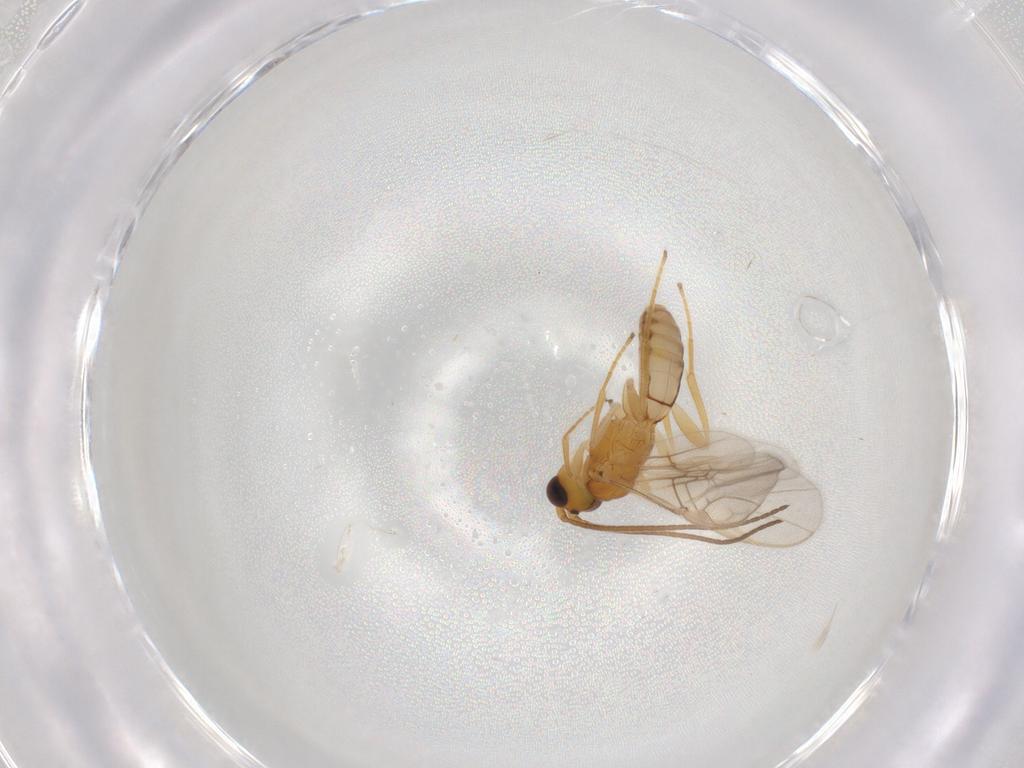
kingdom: Animalia
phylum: Arthropoda
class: Insecta
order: Hymenoptera
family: Braconidae
